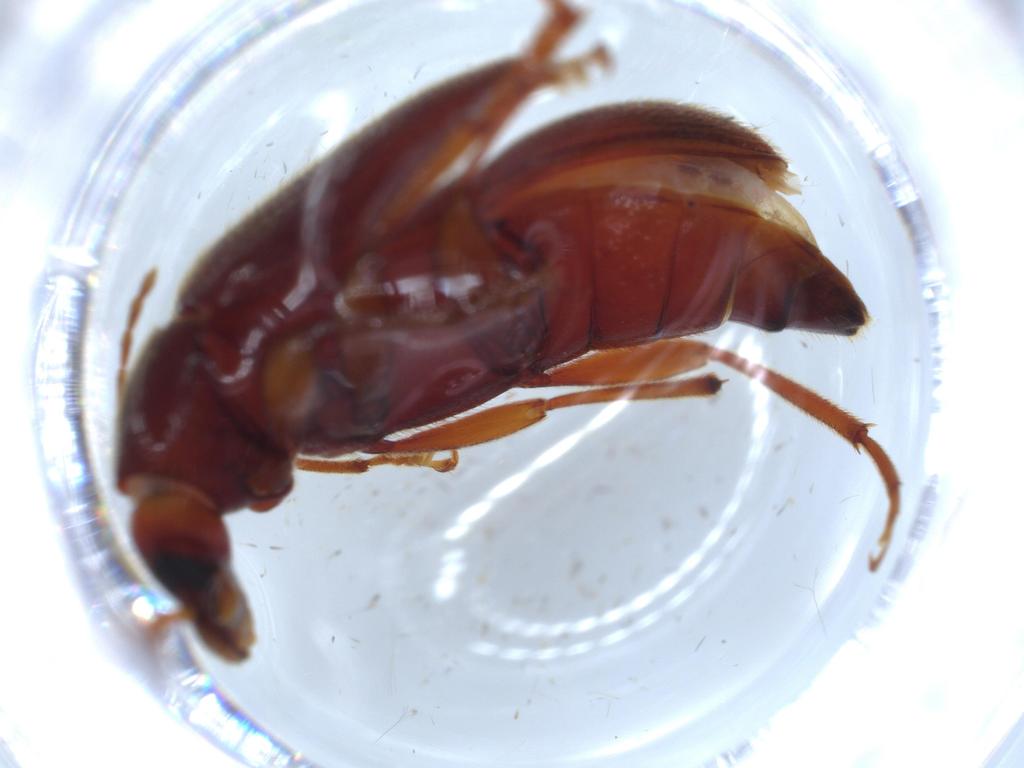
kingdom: Animalia
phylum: Arthropoda
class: Insecta
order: Coleoptera
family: Tenebrionidae
